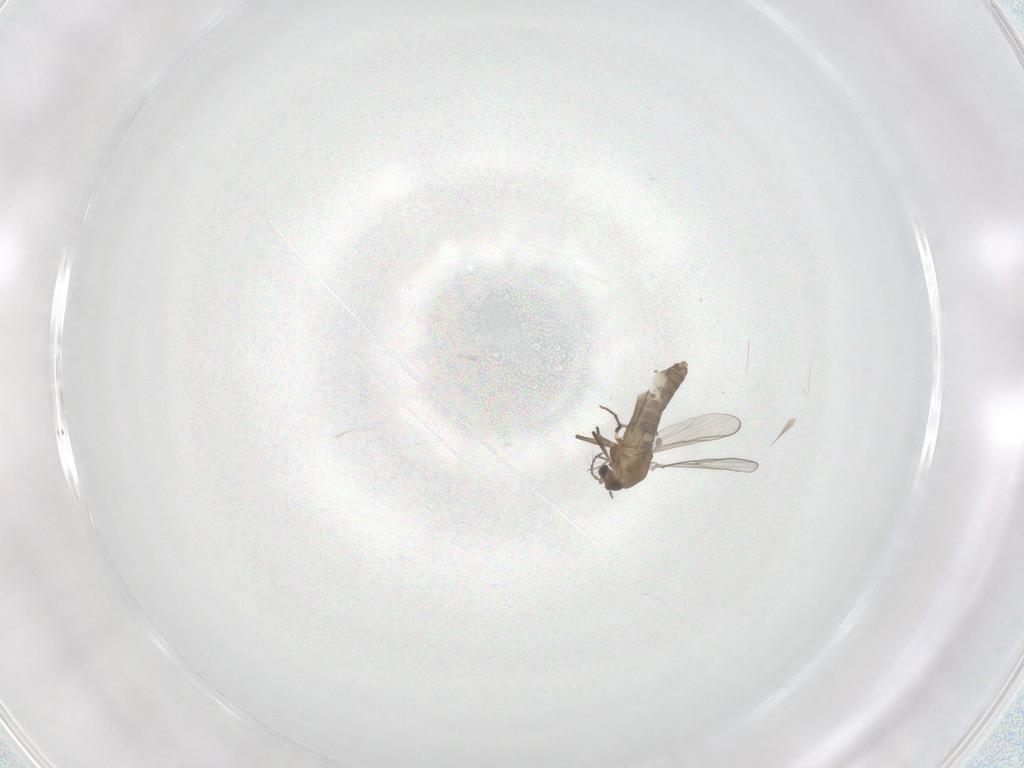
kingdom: Animalia
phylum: Arthropoda
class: Insecta
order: Diptera
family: Chironomidae
